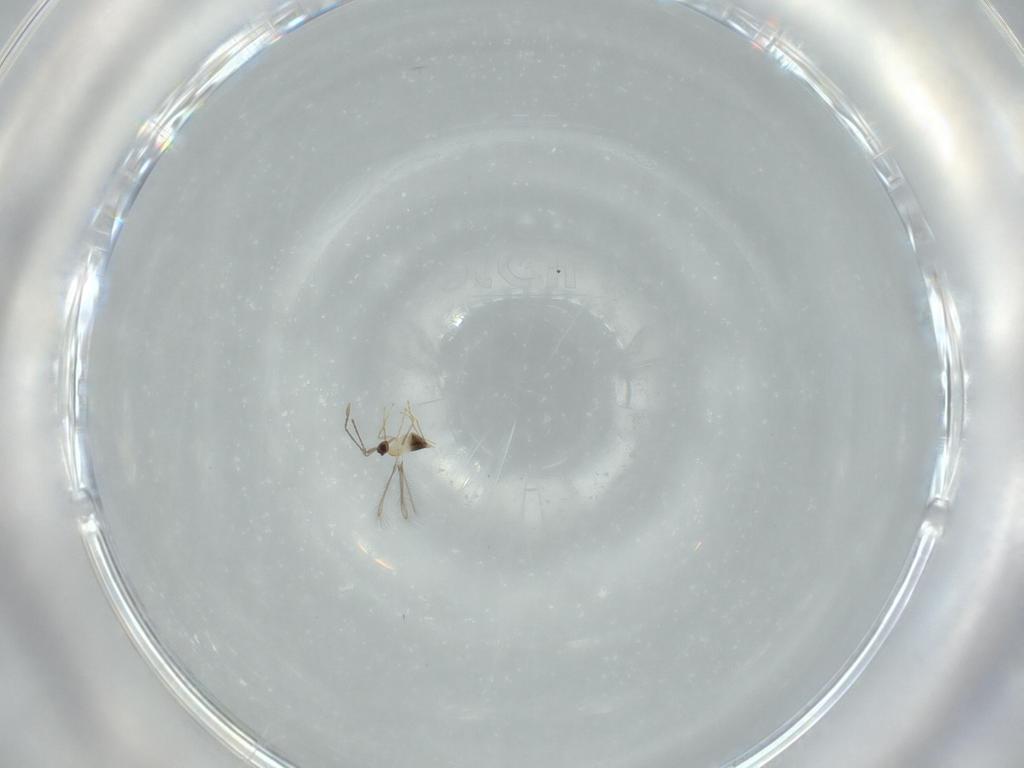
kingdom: Animalia
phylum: Arthropoda
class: Insecta
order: Hymenoptera
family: Mymaridae
